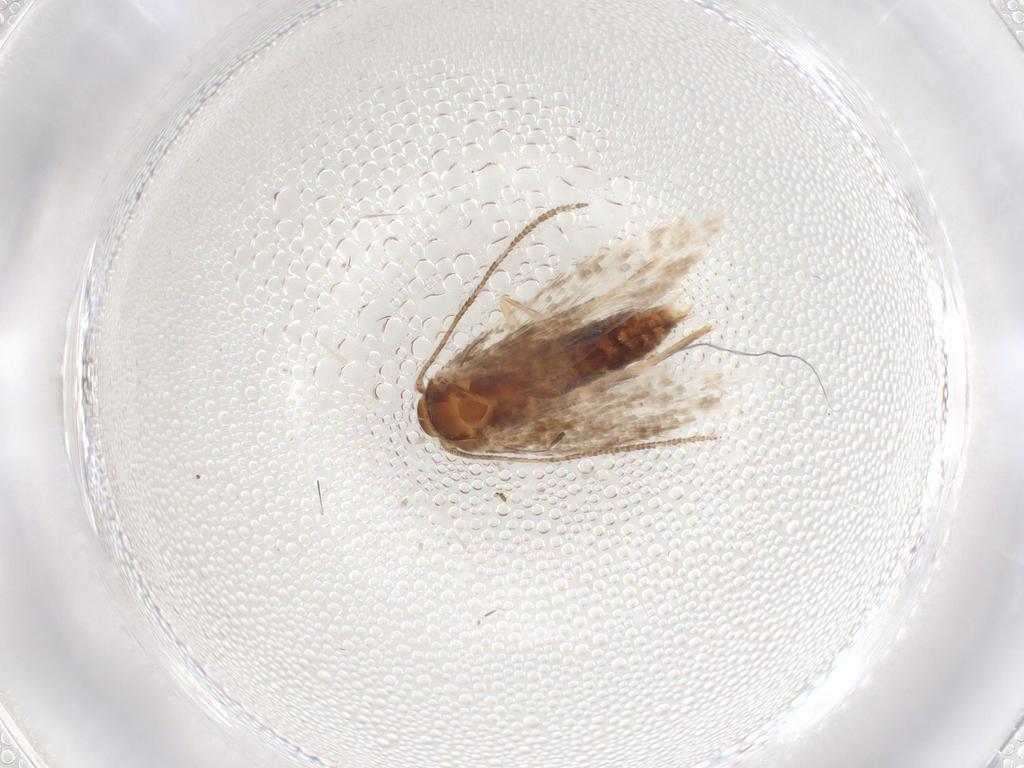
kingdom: Animalia
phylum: Arthropoda
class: Insecta
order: Lepidoptera
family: Momphidae
